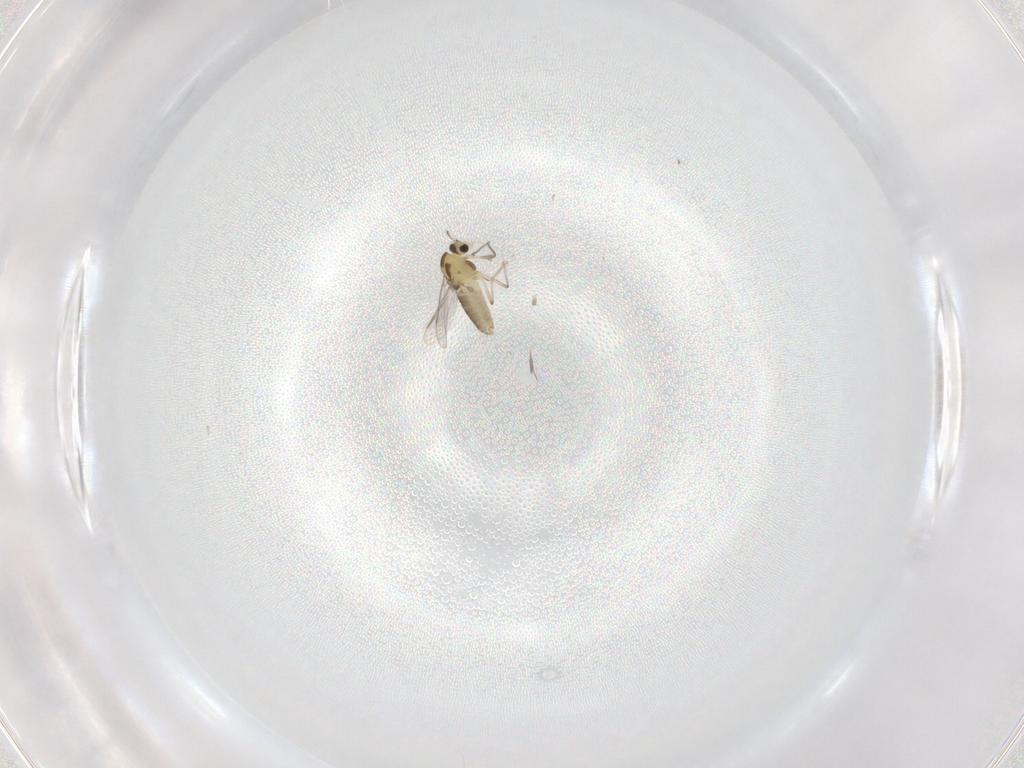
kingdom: Animalia
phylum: Arthropoda
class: Insecta
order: Diptera
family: Chironomidae
